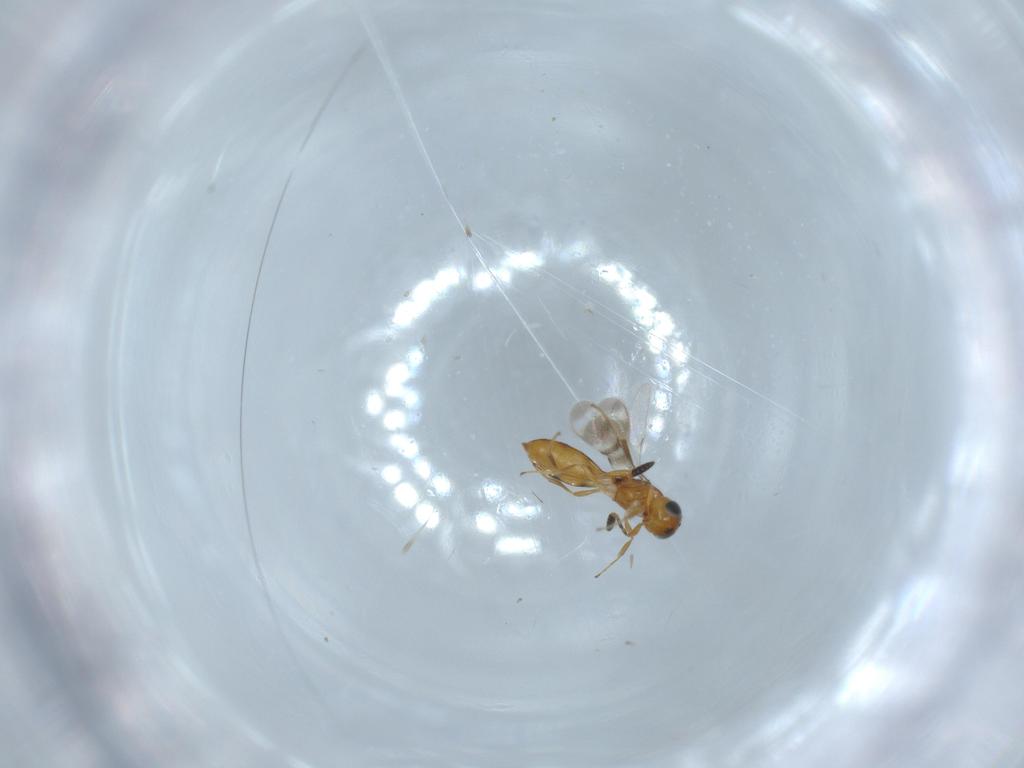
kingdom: Animalia
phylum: Arthropoda
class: Insecta
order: Hymenoptera
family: Scelionidae
